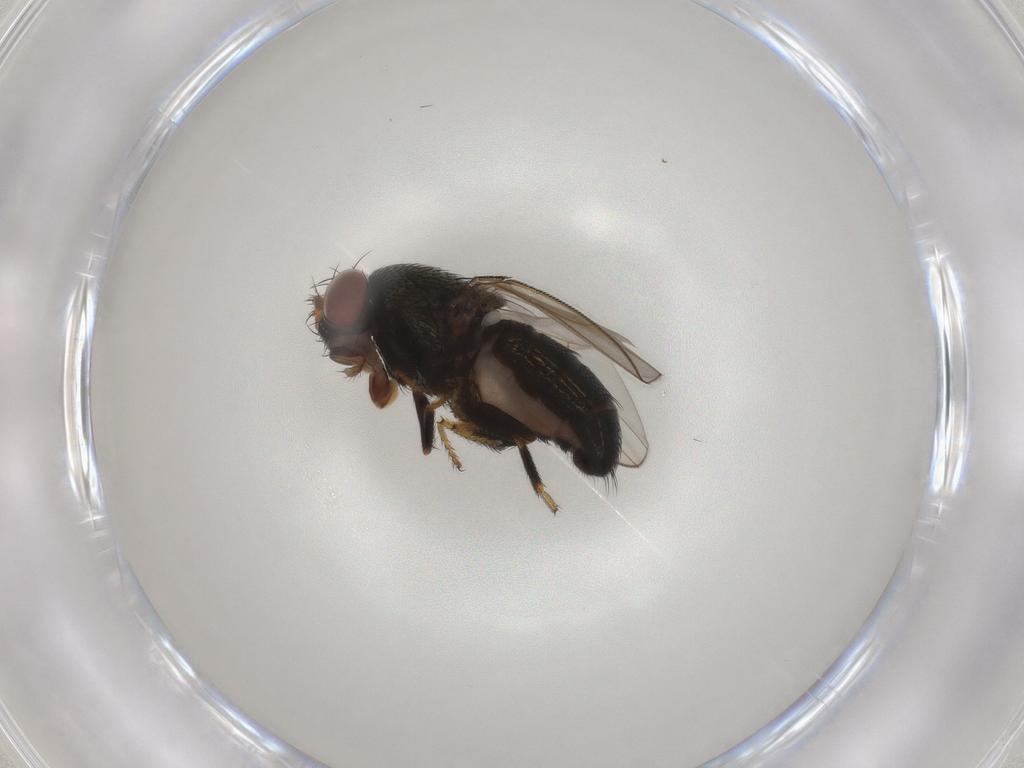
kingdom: Animalia
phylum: Arthropoda
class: Insecta
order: Diptera
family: Ephydridae
